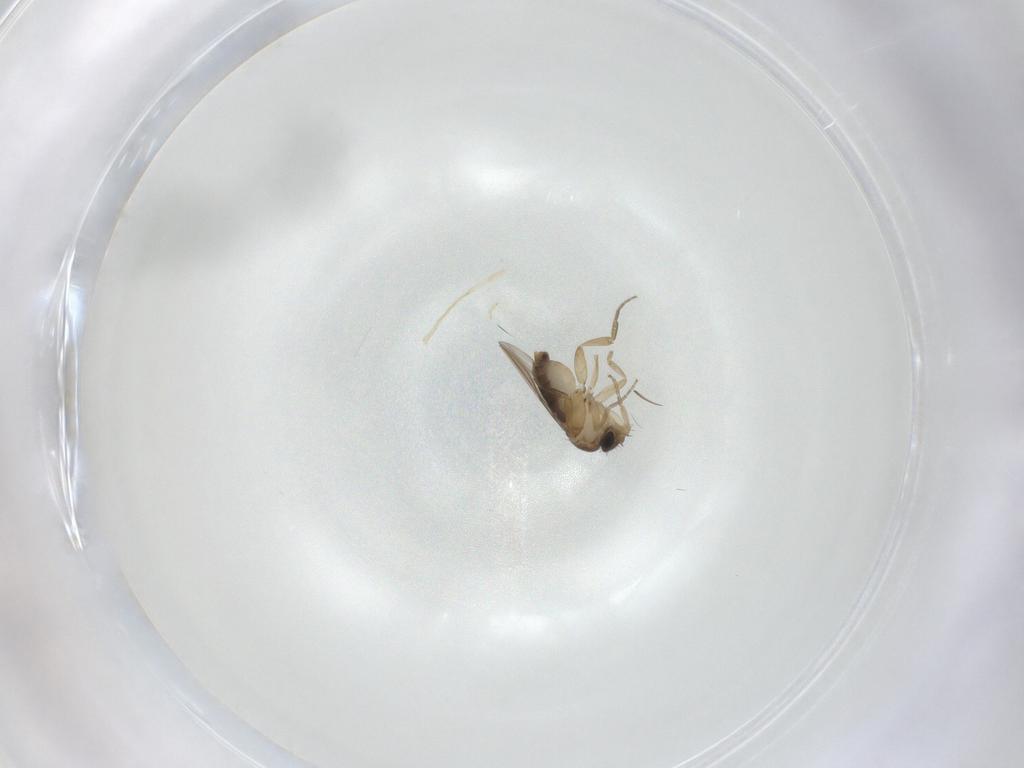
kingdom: Animalia
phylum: Arthropoda
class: Insecta
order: Diptera
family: Phoridae
